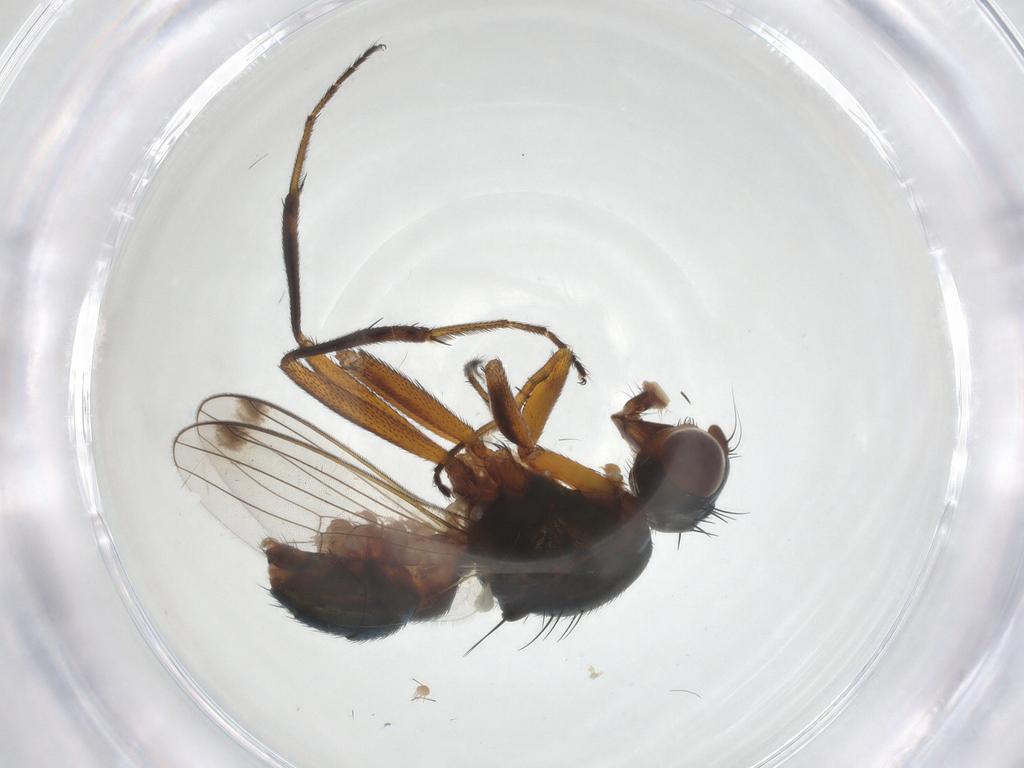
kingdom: Animalia
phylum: Arthropoda
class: Insecta
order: Diptera
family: Sepsidae
